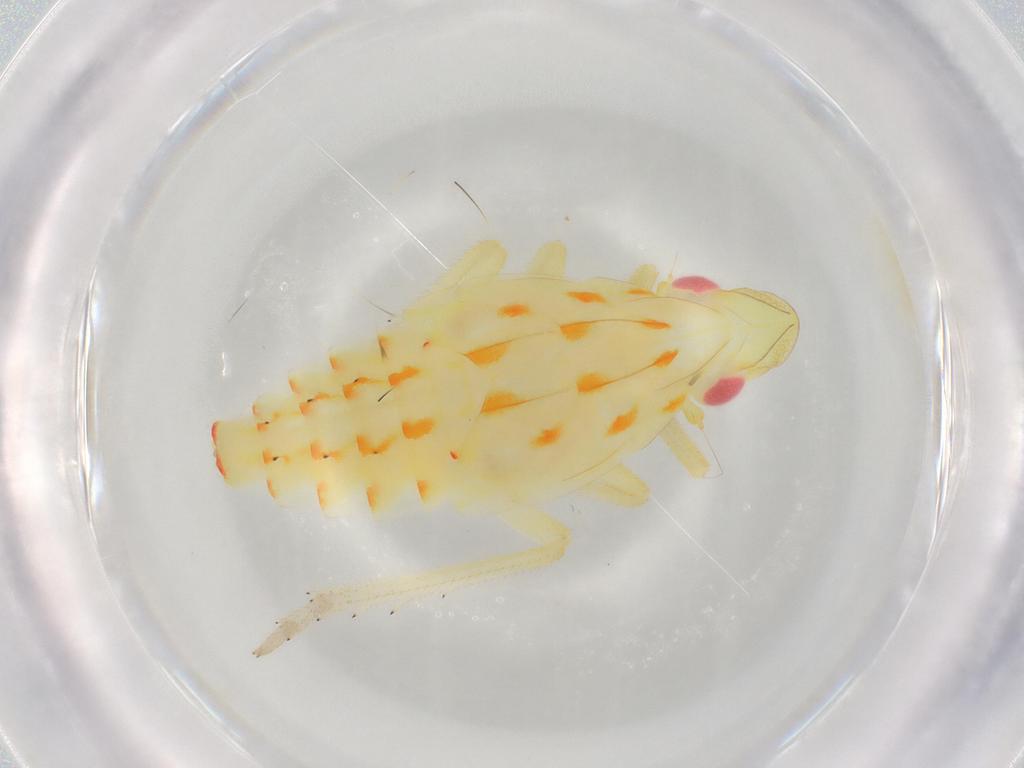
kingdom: Animalia
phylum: Arthropoda
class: Insecta
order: Hemiptera
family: Tropiduchidae
